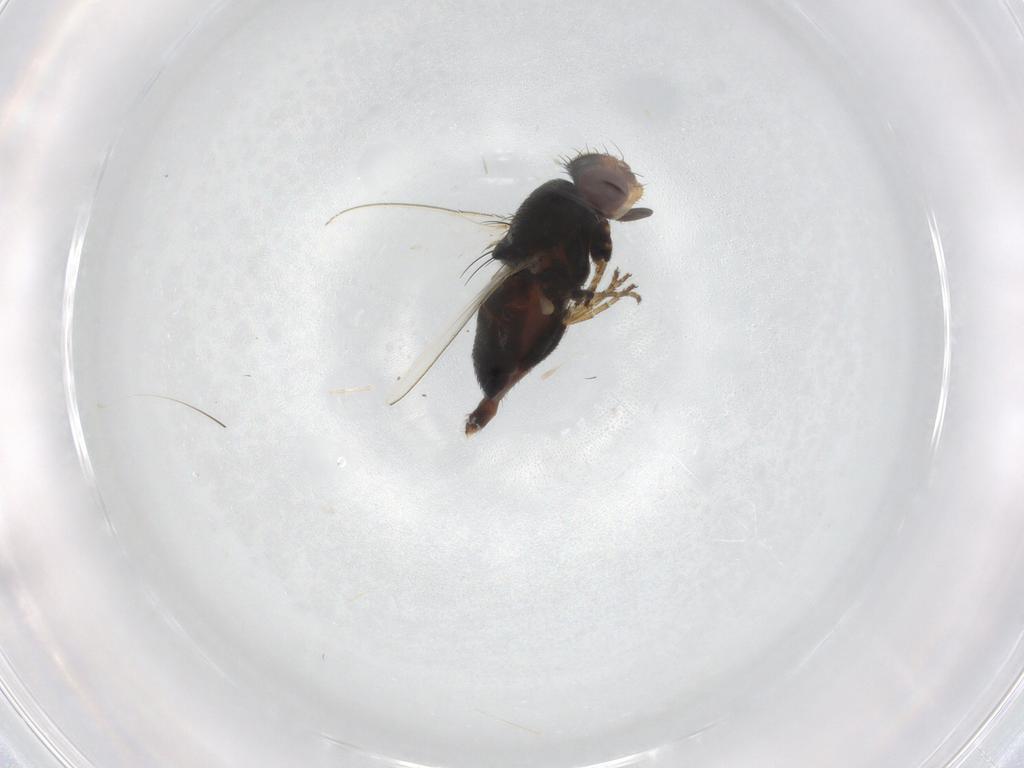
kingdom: Animalia
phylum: Arthropoda
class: Insecta
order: Diptera
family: Milichiidae
